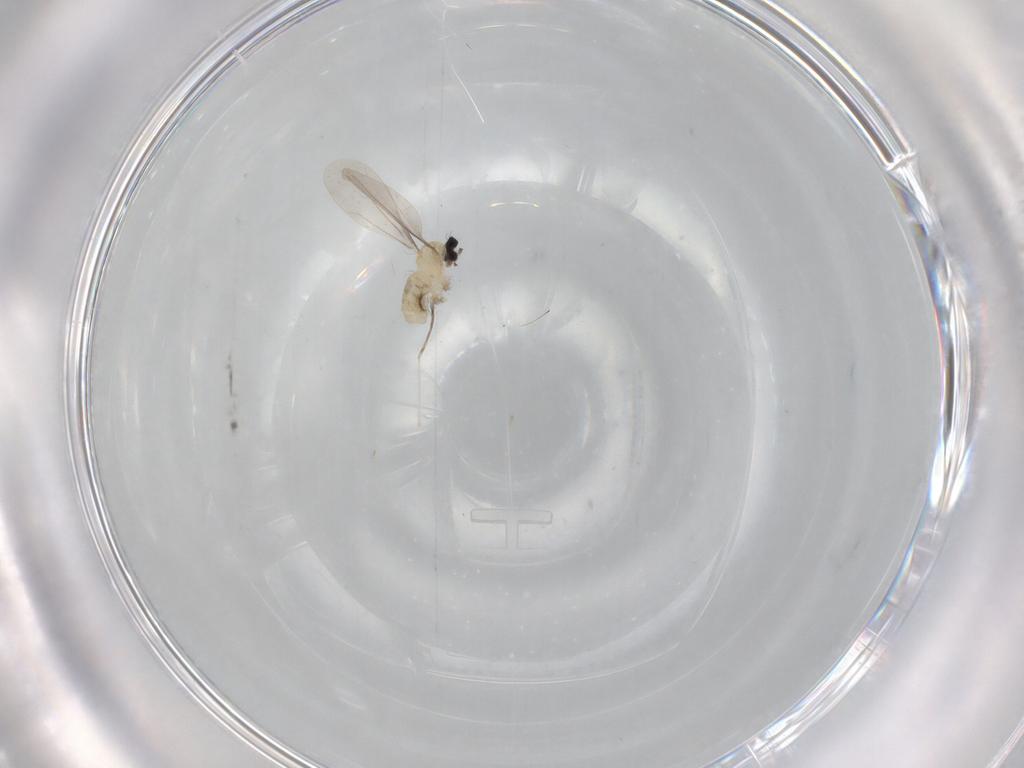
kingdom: Animalia
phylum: Arthropoda
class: Insecta
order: Diptera
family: Cecidomyiidae
